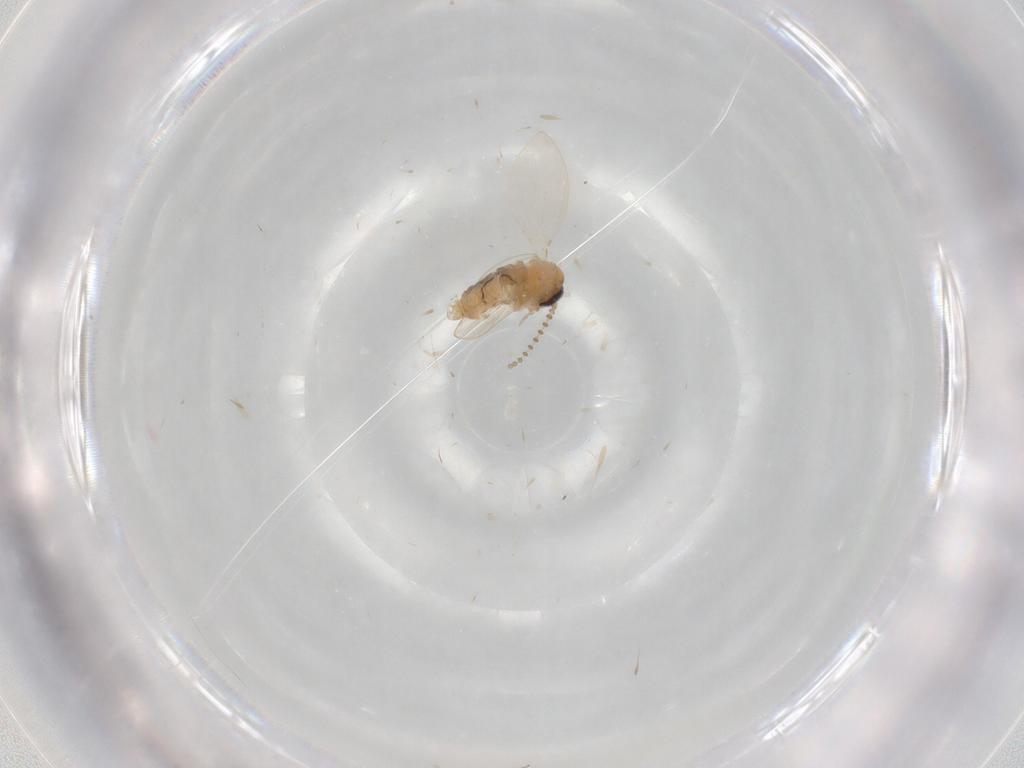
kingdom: Animalia
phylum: Arthropoda
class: Insecta
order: Diptera
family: Psychodidae
